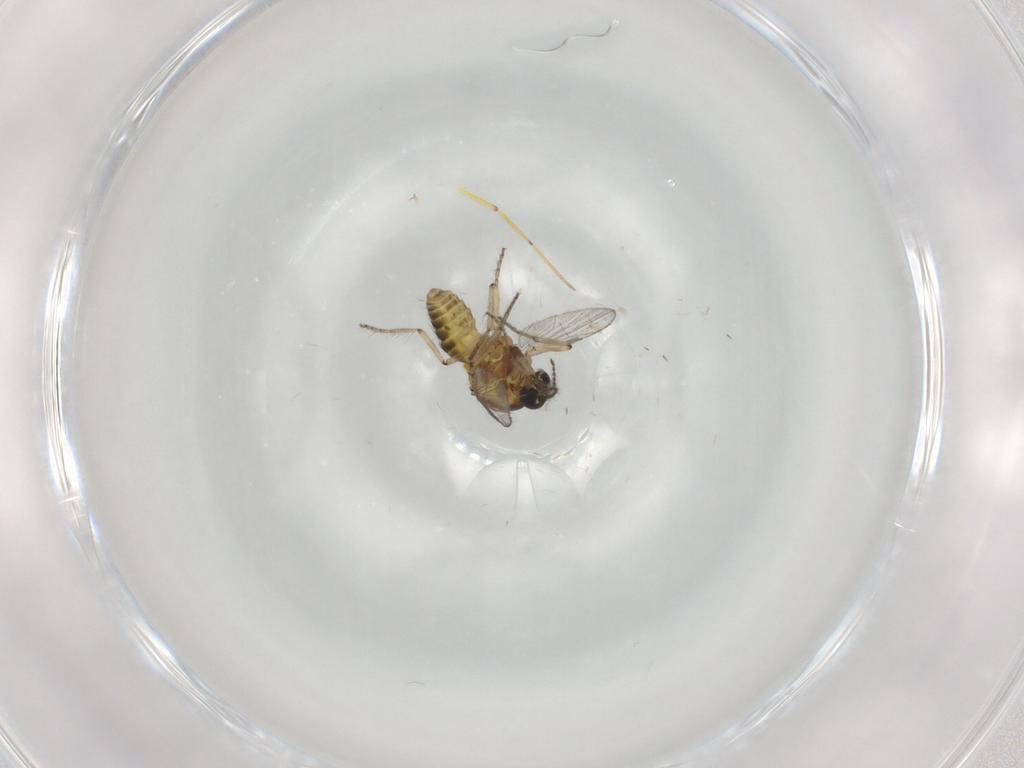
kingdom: Animalia
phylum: Arthropoda
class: Insecta
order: Diptera
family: Ceratopogonidae
